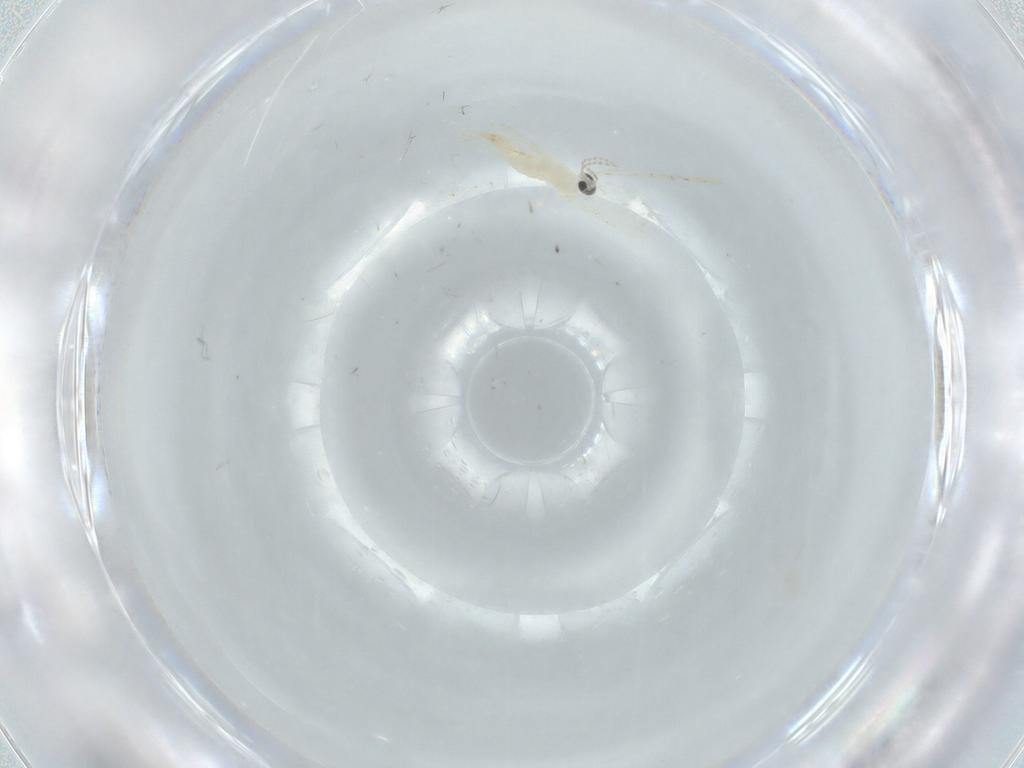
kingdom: Animalia
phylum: Arthropoda
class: Insecta
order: Diptera
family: Cecidomyiidae
